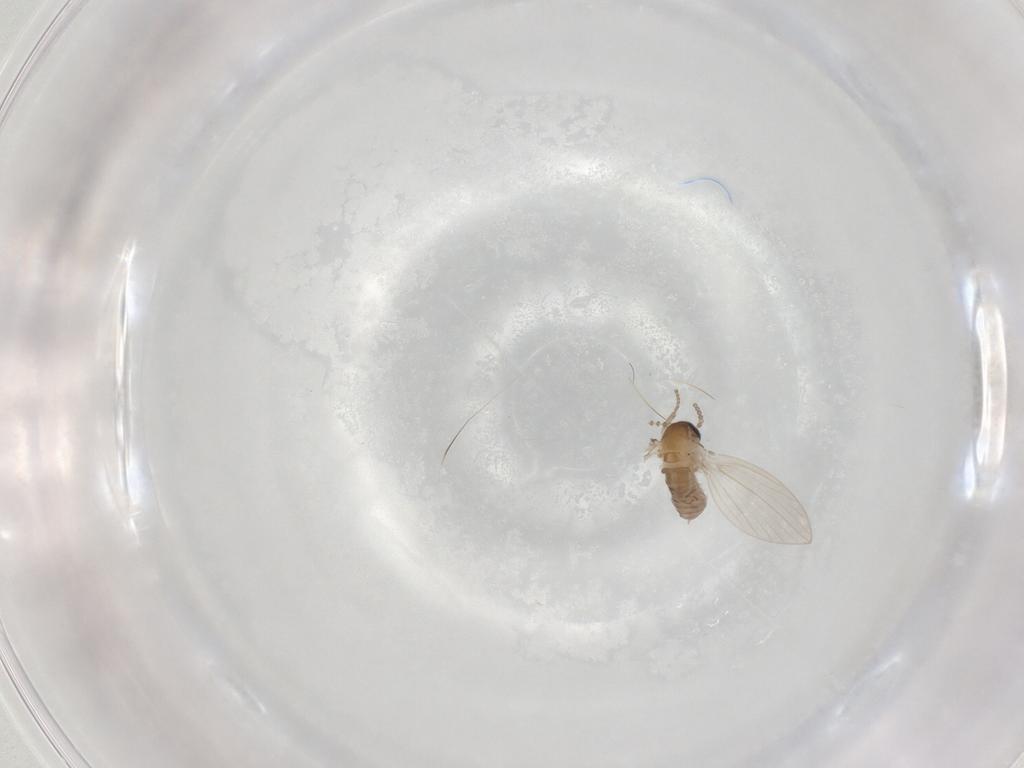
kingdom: Animalia
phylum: Arthropoda
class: Insecta
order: Diptera
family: Psychodidae
